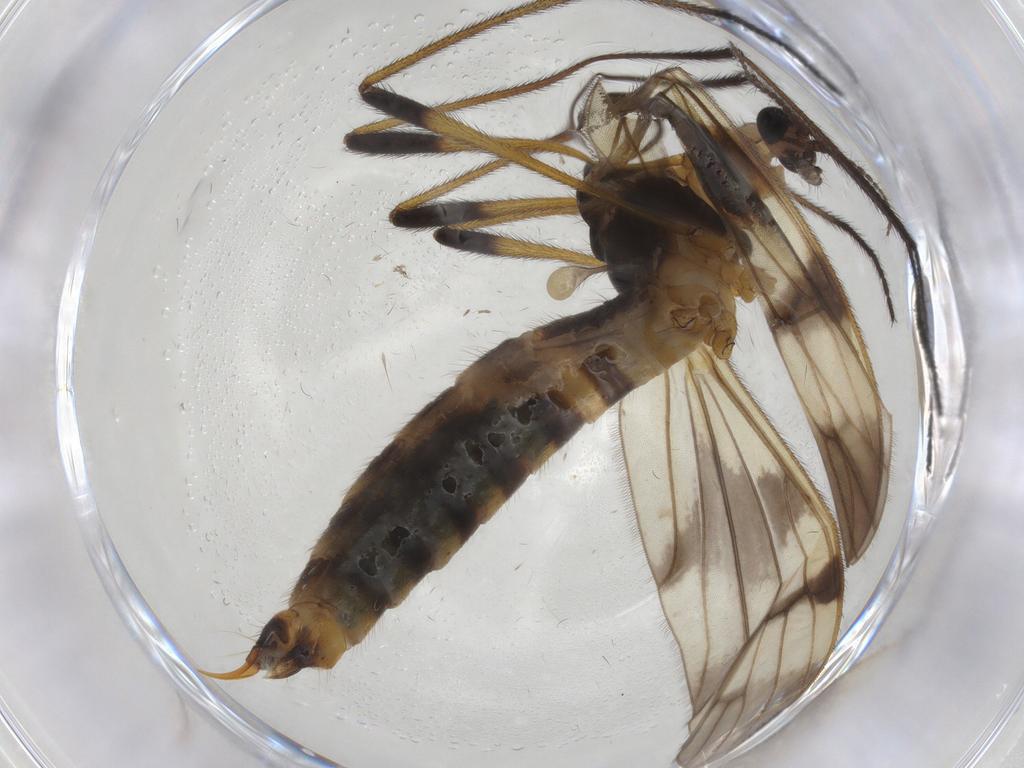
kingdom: Animalia
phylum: Arthropoda
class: Insecta
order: Diptera
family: Limoniidae
